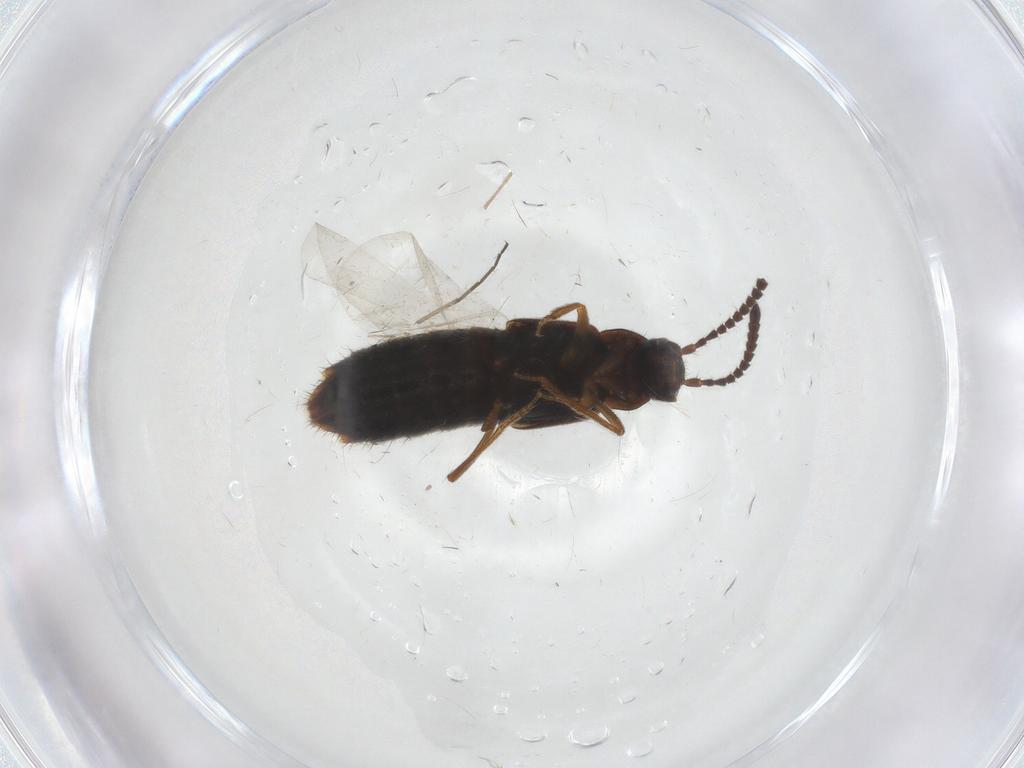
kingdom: Animalia
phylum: Arthropoda
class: Insecta
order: Coleoptera
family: Staphylinidae
